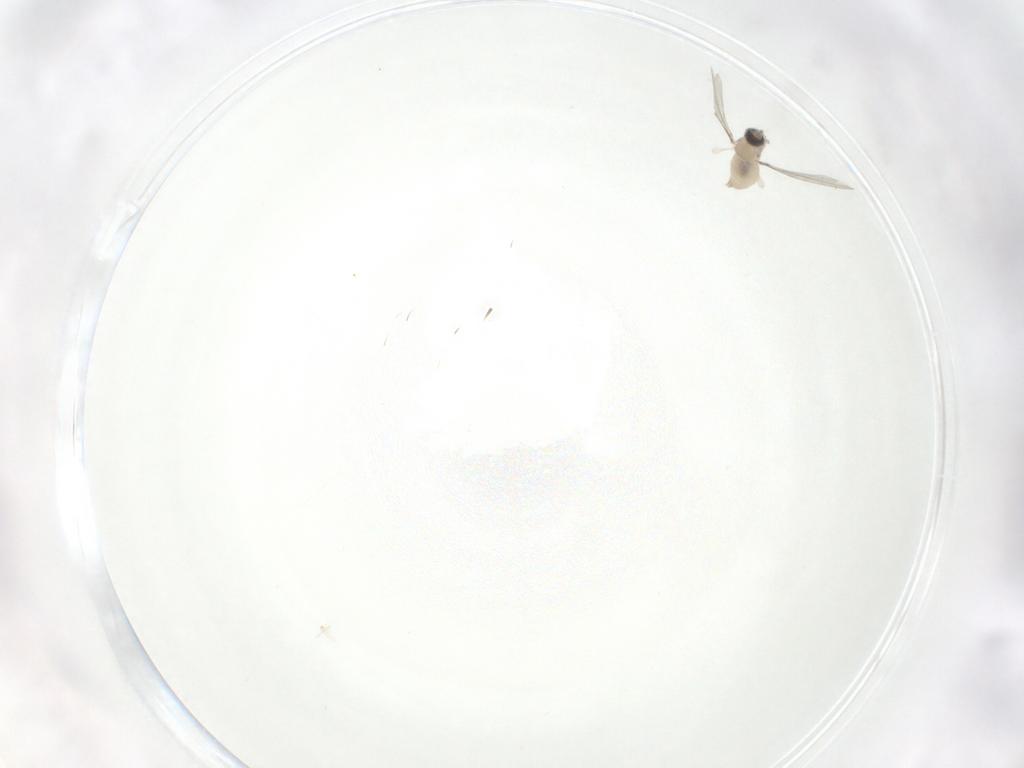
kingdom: Animalia
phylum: Arthropoda
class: Insecta
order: Diptera
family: Cecidomyiidae
